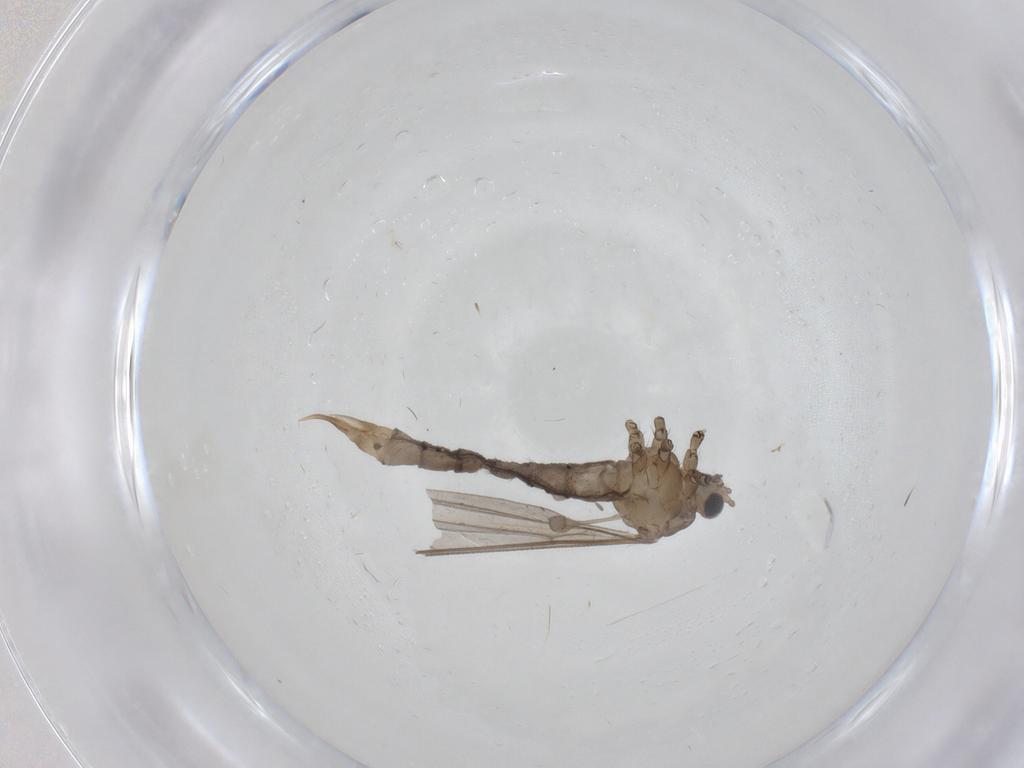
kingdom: Animalia
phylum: Arthropoda
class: Insecta
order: Diptera
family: Limoniidae
